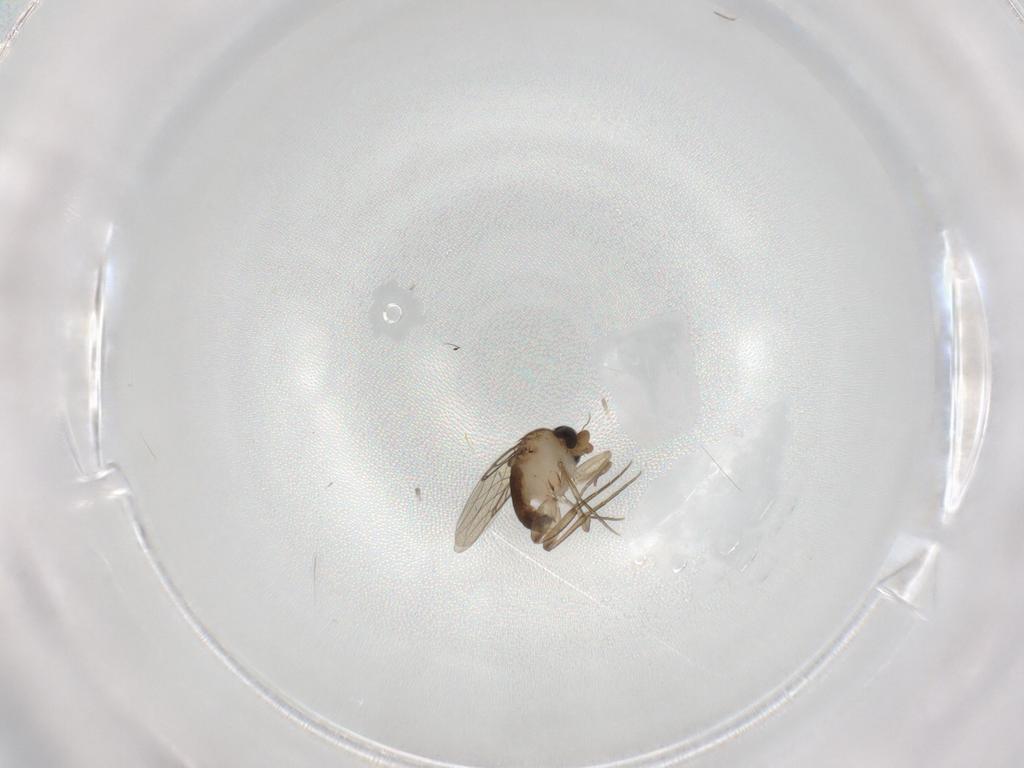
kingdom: Animalia
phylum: Arthropoda
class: Insecta
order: Diptera
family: Phoridae
